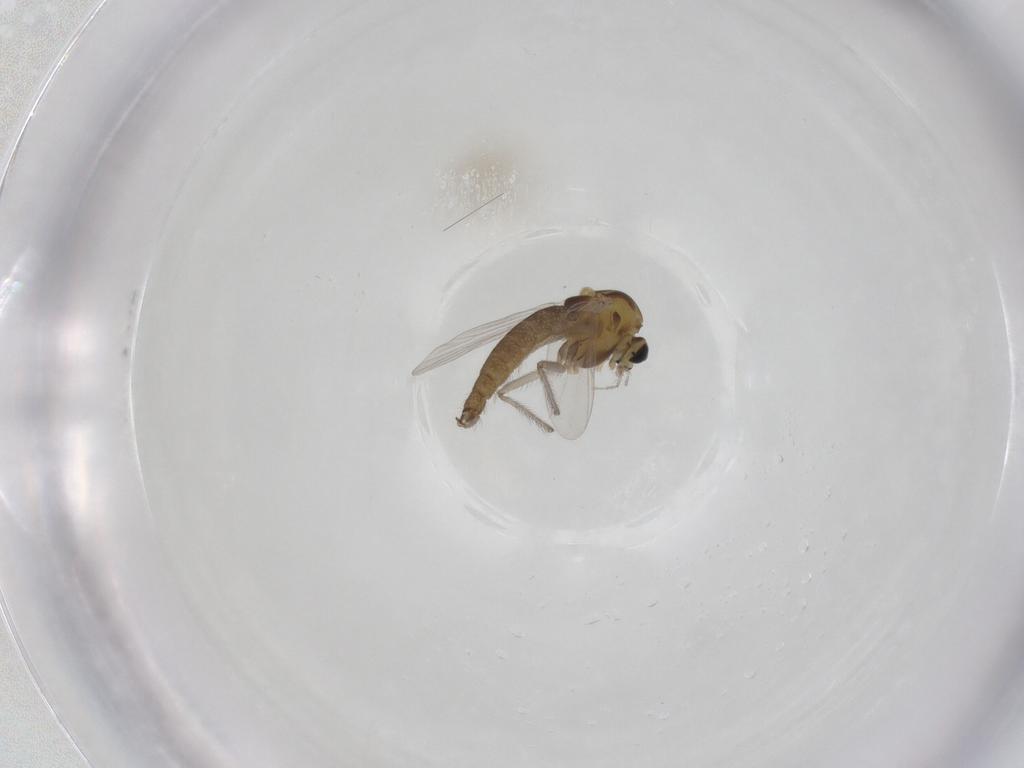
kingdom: Animalia
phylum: Arthropoda
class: Insecta
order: Diptera
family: Chironomidae
